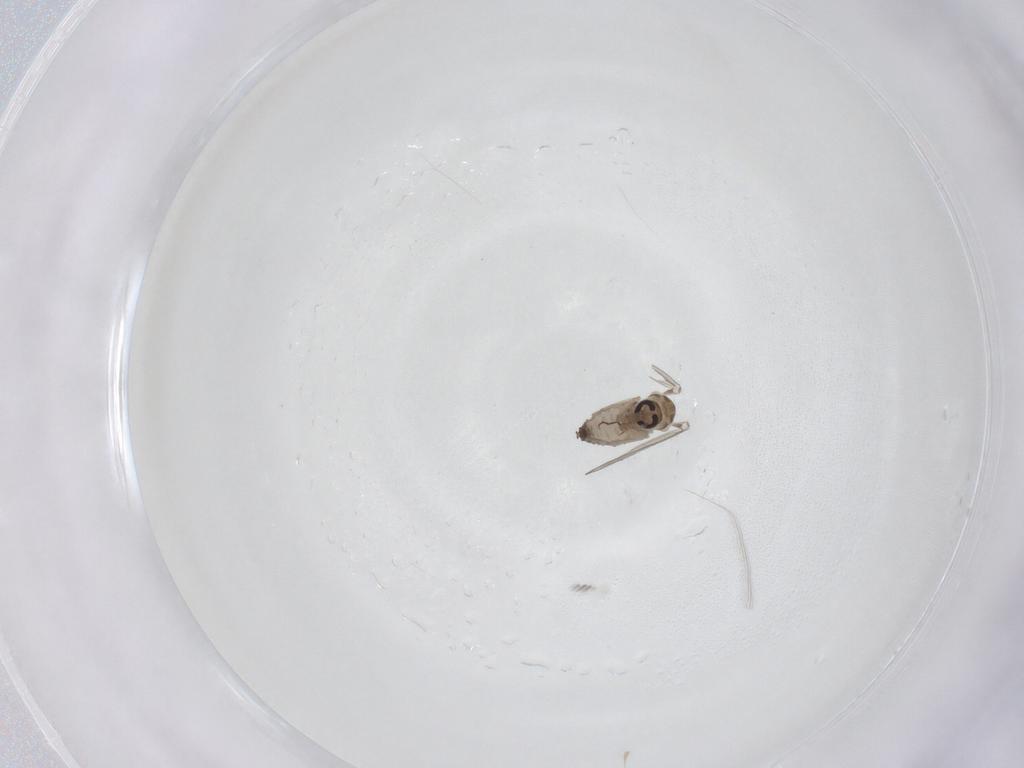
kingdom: Animalia
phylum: Arthropoda
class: Insecta
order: Diptera
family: Psychodidae
